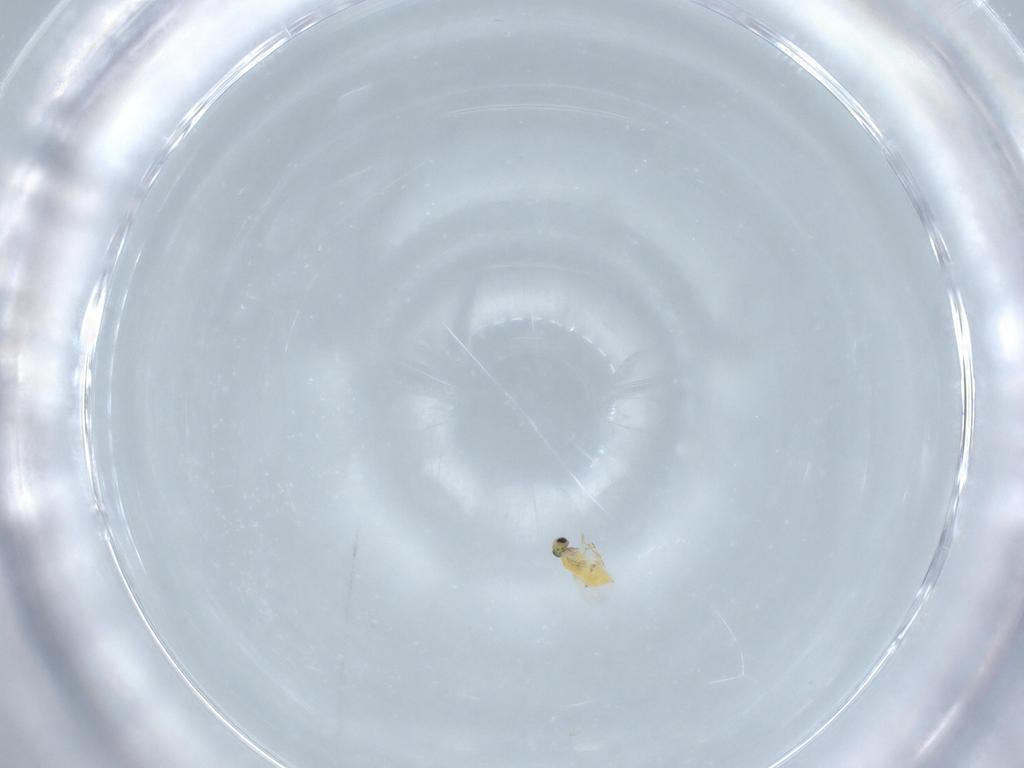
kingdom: Animalia
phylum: Arthropoda
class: Insecta
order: Hymenoptera
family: Trichogrammatidae
